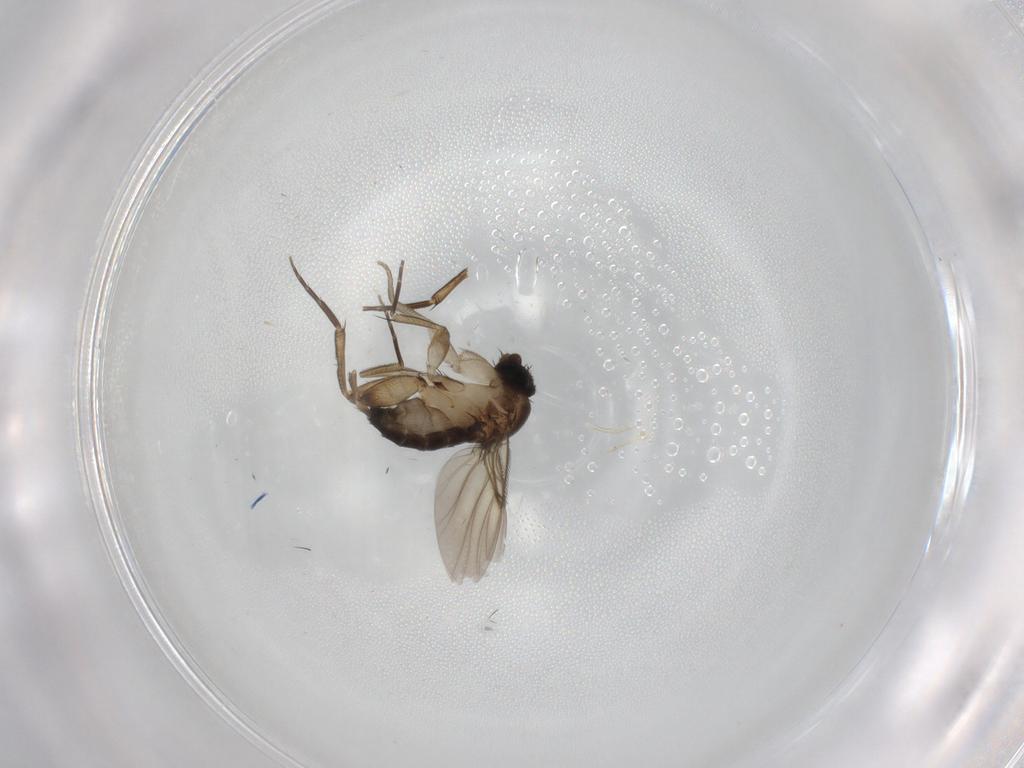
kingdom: Animalia
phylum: Arthropoda
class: Insecta
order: Diptera
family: Phoridae
